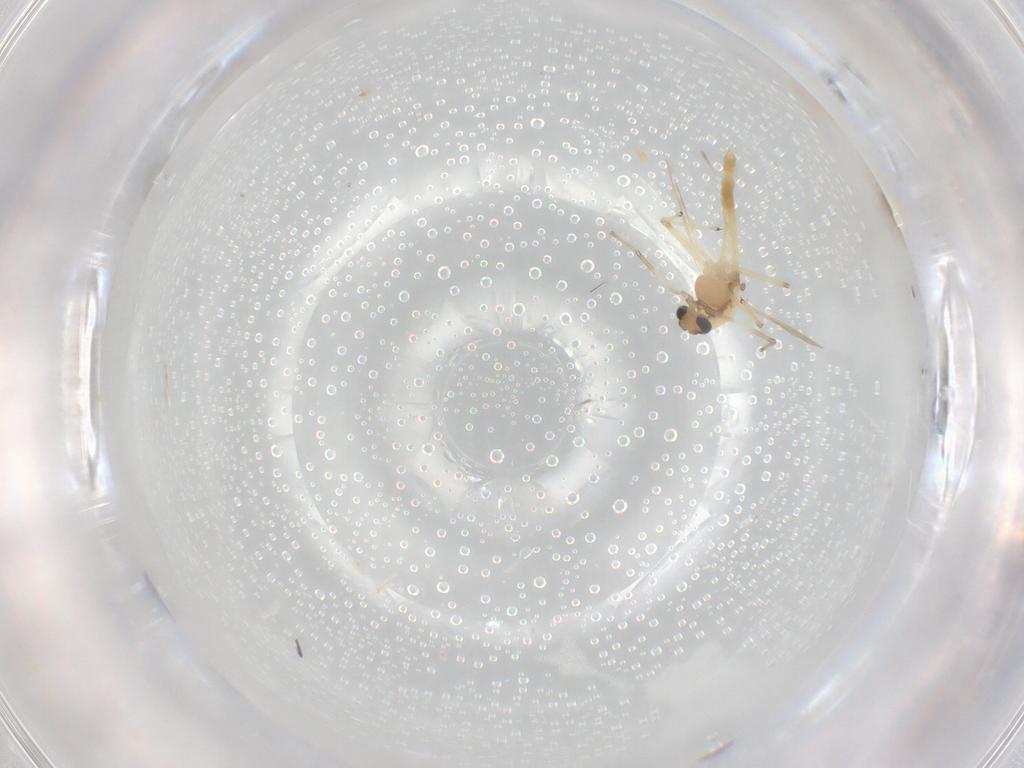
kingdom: Animalia
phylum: Arthropoda
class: Insecta
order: Diptera
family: Chironomidae
